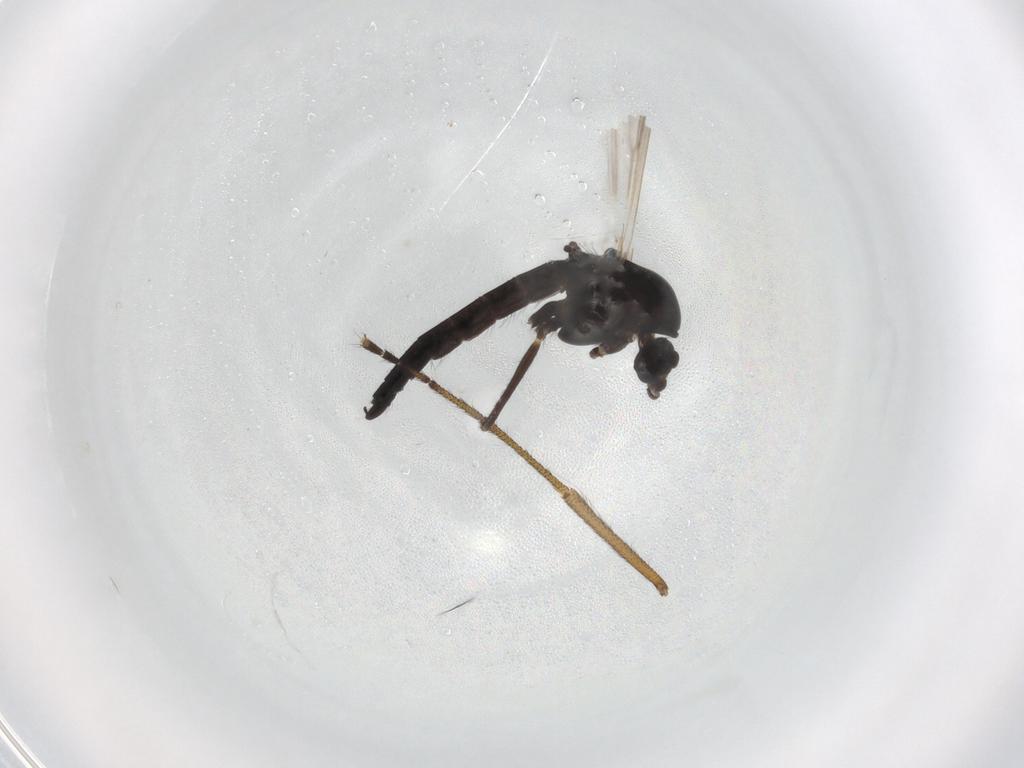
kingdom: Animalia
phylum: Arthropoda
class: Insecta
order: Diptera
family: Chironomidae
